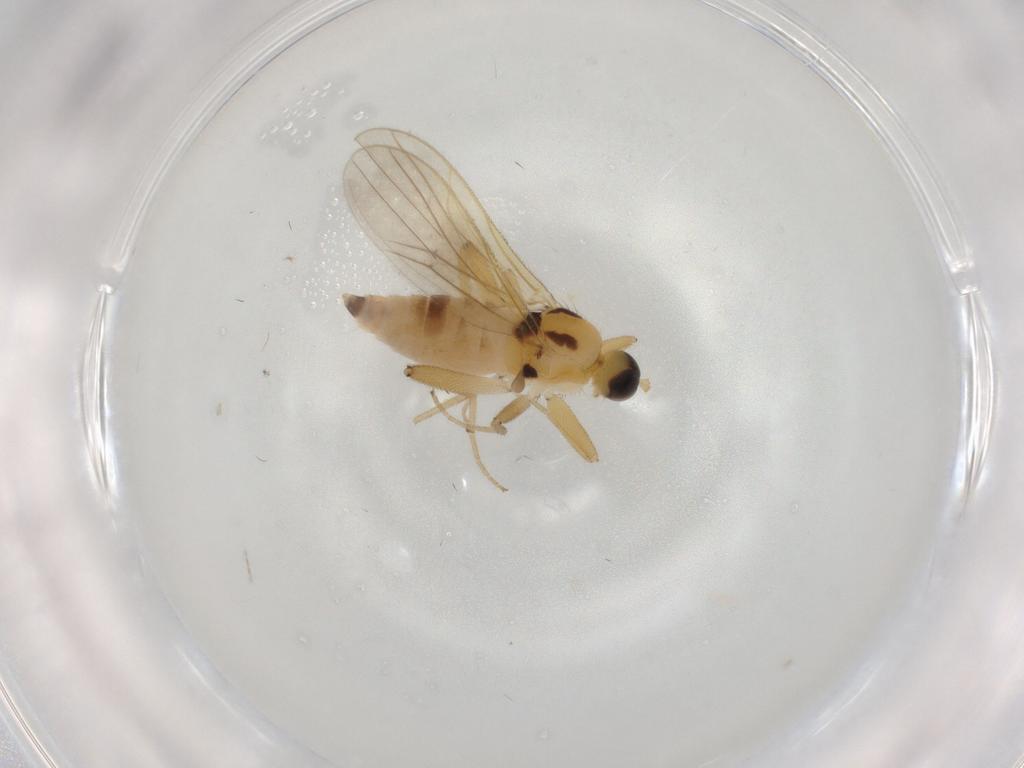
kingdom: Animalia
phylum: Arthropoda
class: Insecta
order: Diptera
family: Hybotidae
